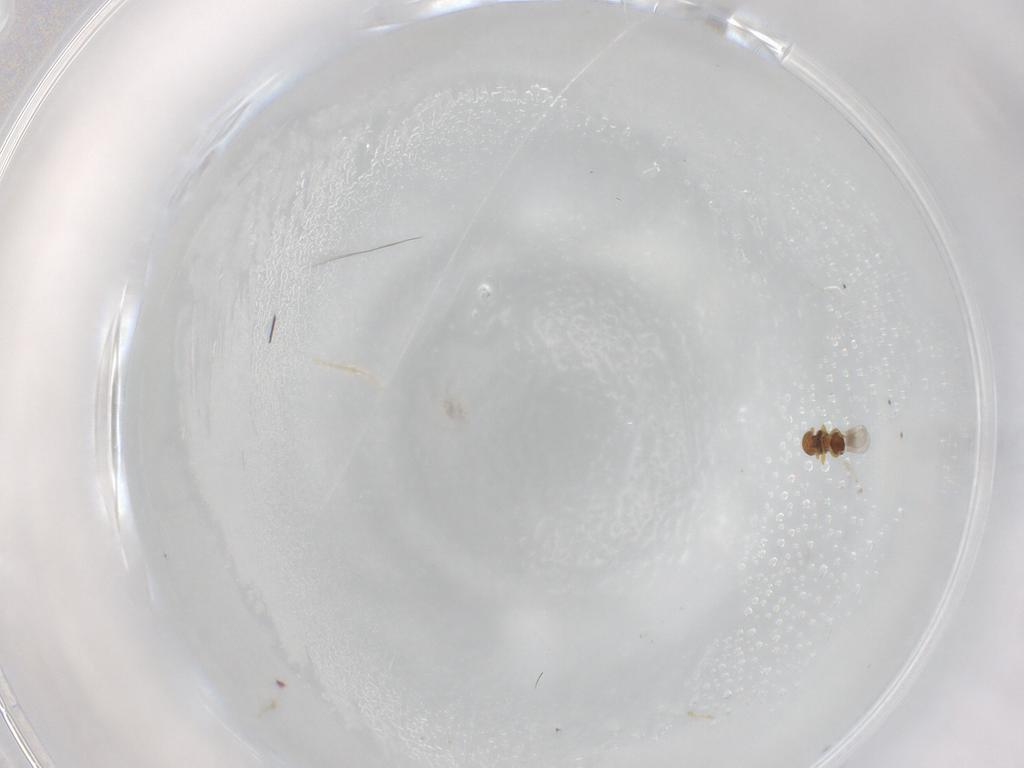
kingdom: Animalia
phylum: Arthropoda
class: Insecta
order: Hymenoptera
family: Platygastridae
